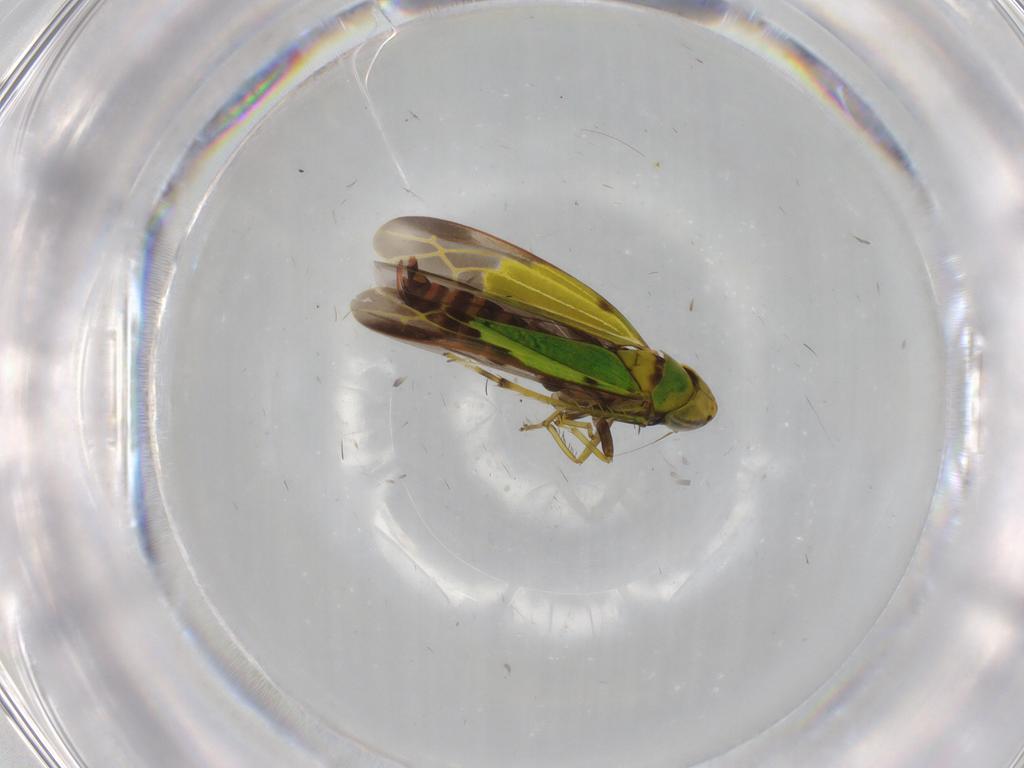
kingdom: Animalia
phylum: Arthropoda
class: Insecta
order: Hemiptera
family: Cicadellidae
